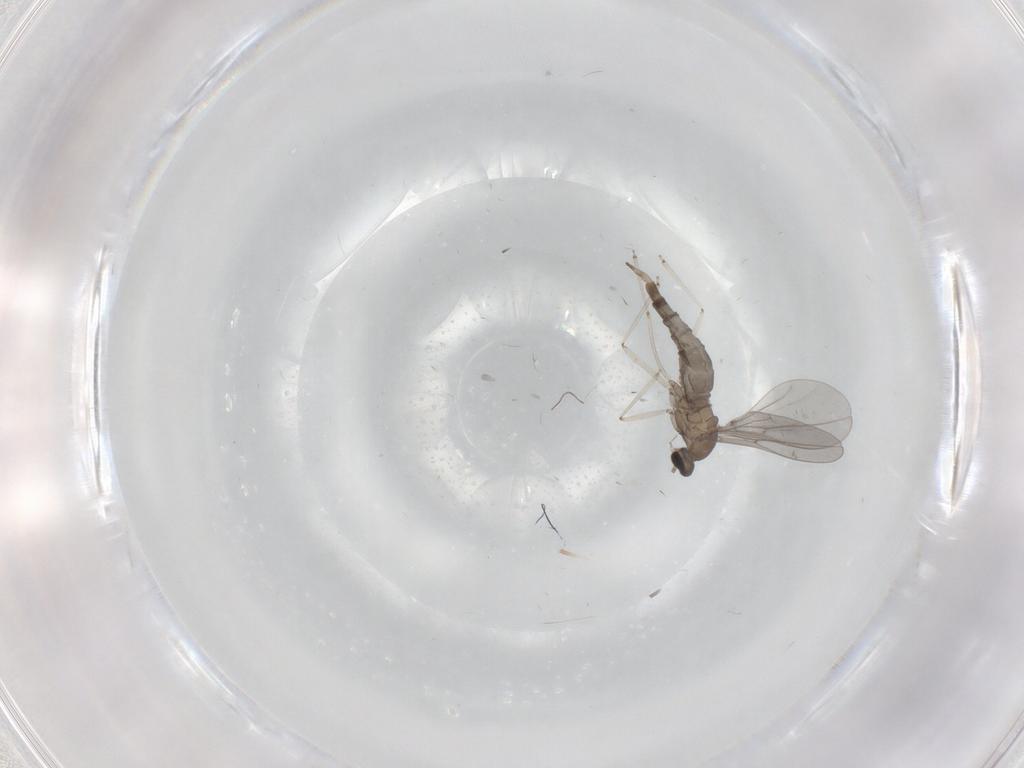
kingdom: Animalia
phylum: Arthropoda
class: Insecta
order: Diptera
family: Cecidomyiidae
